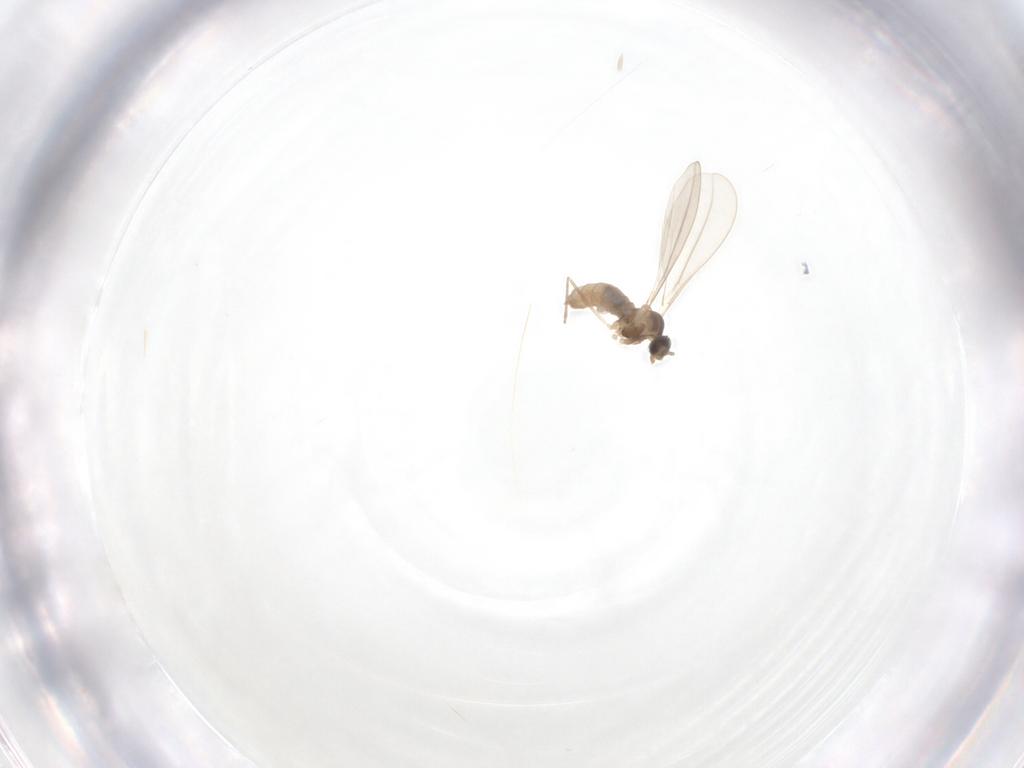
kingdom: Animalia
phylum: Arthropoda
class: Insecta
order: Diptera
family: Cecidomyiidae
